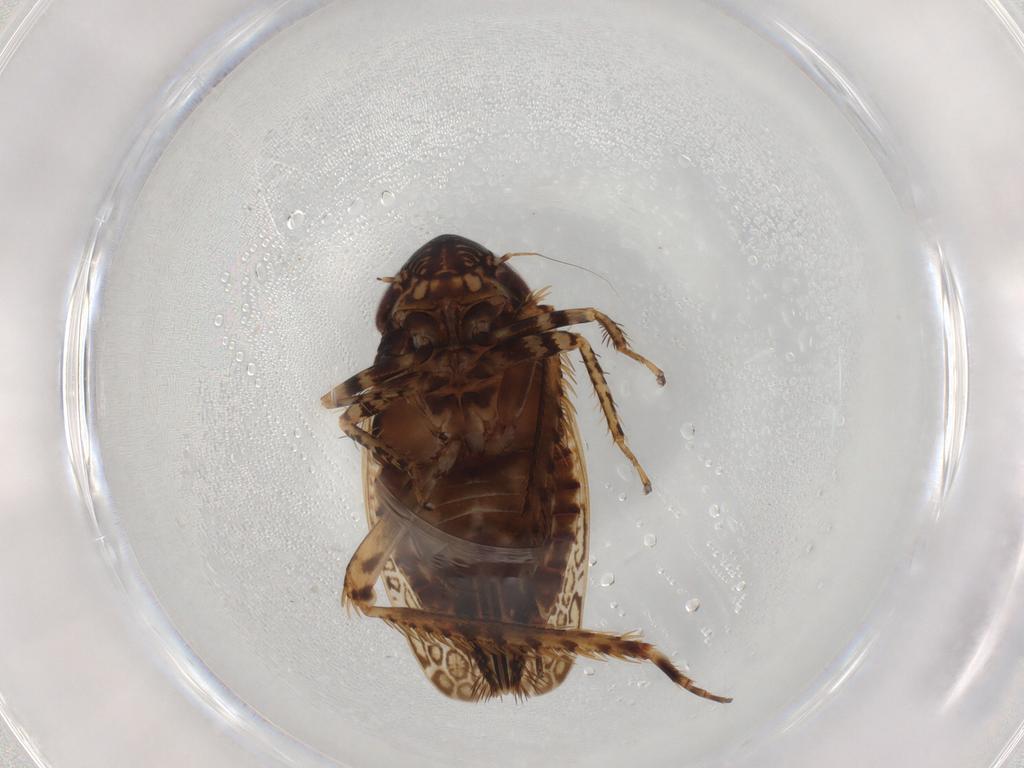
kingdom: Animalia
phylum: Arthropoda
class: Insecta
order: Hemiptera
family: Cicadellidae
